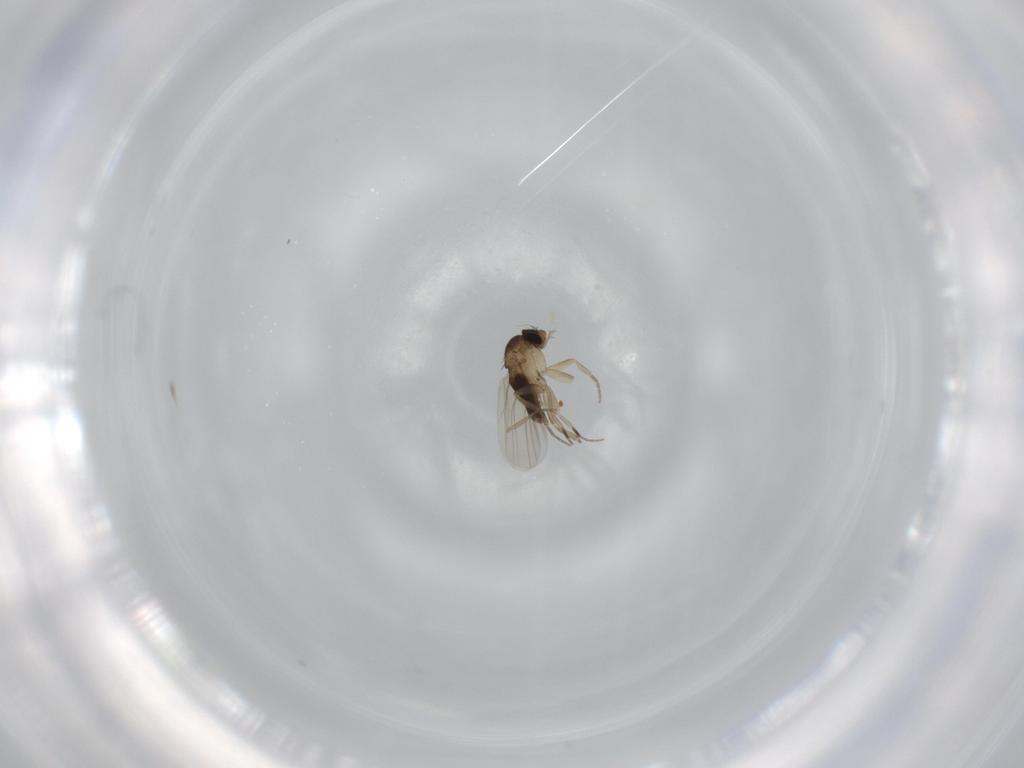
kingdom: Animalia
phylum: Arthropoda
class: Insecta
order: Diptera
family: Phoridae
